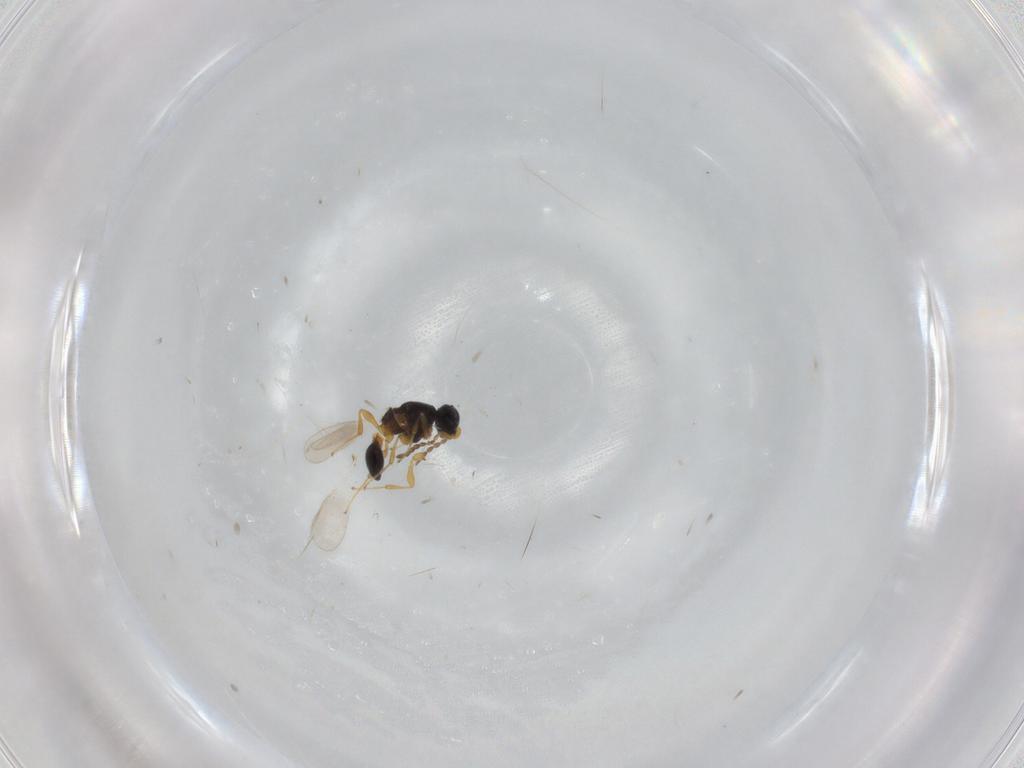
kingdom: Animalia
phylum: Arthropoda
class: Insecta
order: Hymenoptera
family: Platygastridae
